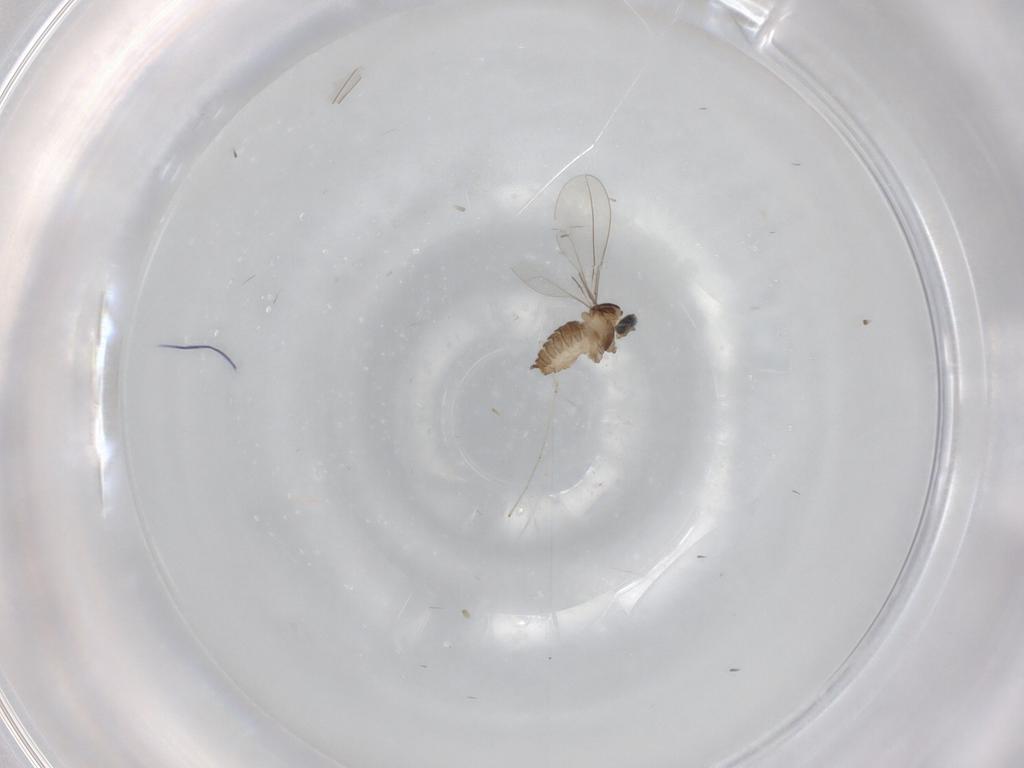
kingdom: Animalia
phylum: Arthropoda
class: Insecta
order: Diptera
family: Cecidomyiidae
